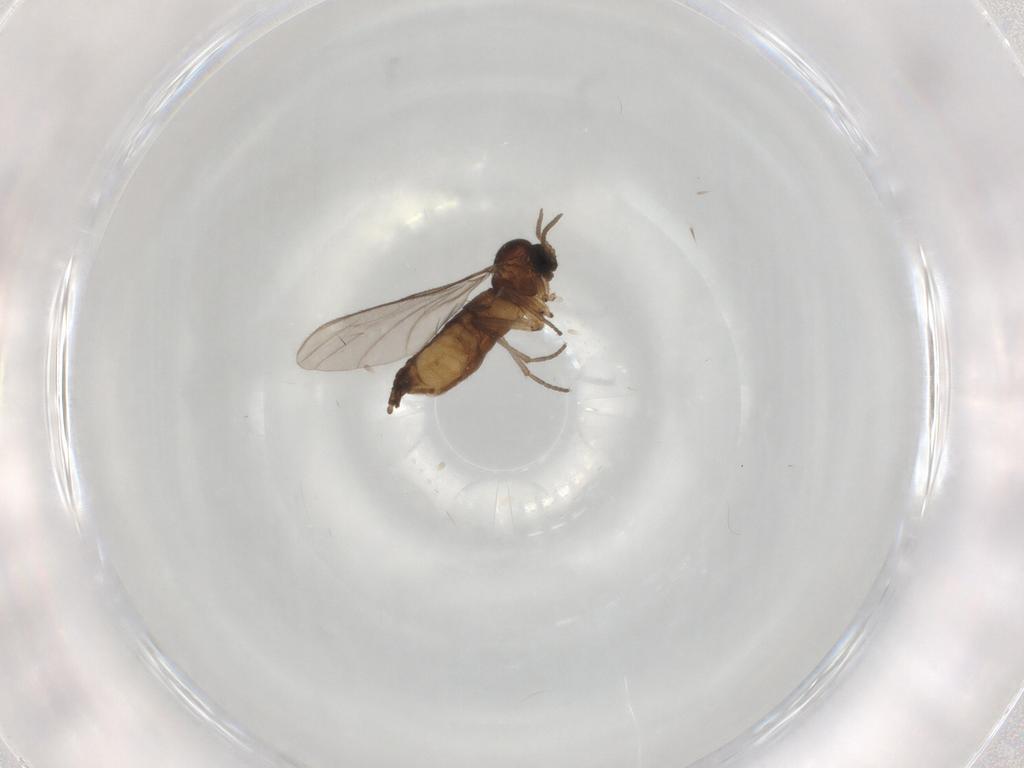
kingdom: Animalia
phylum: Arthropoda
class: Insecta
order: Diptera
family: Sciaridae
